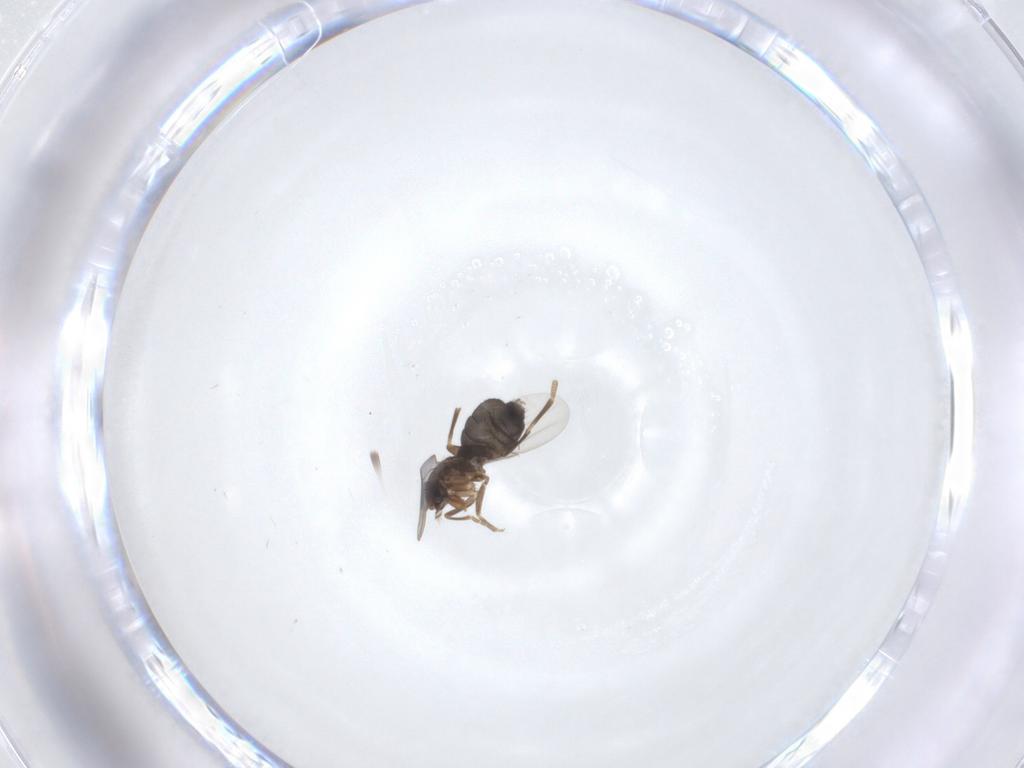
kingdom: Animalia
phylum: Arthropoda
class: Insecta
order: Diptera
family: Phoridae
